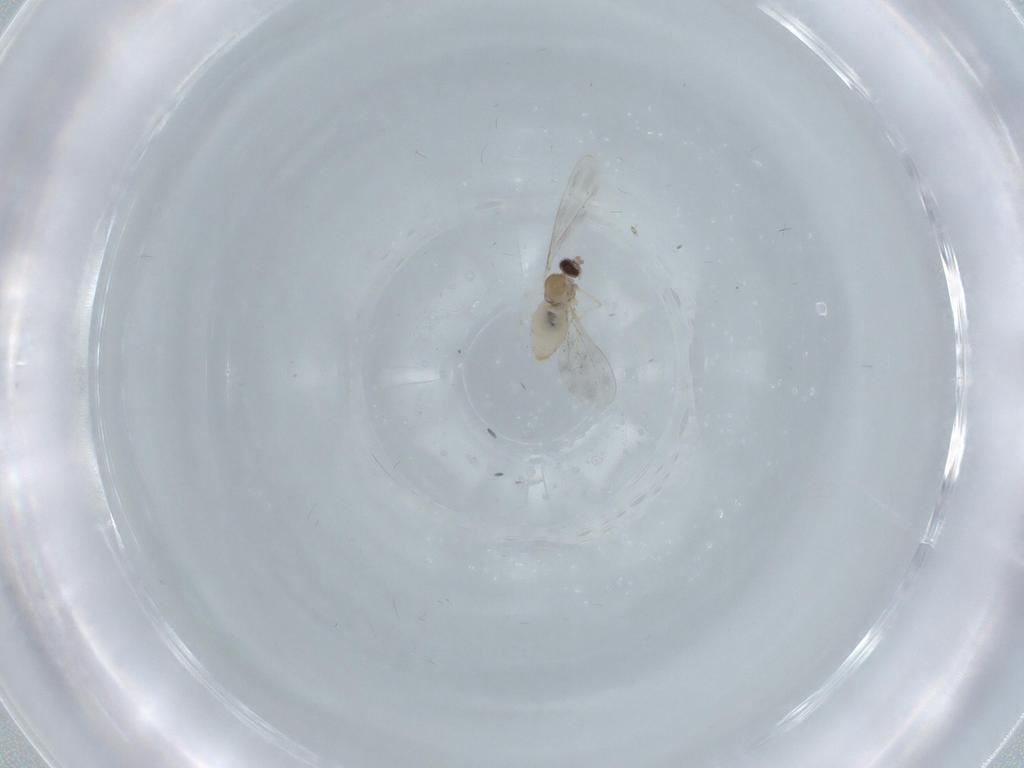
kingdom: Animalia
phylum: Arthropoda
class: Insecta
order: Diptera
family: Cecidomyiidae
